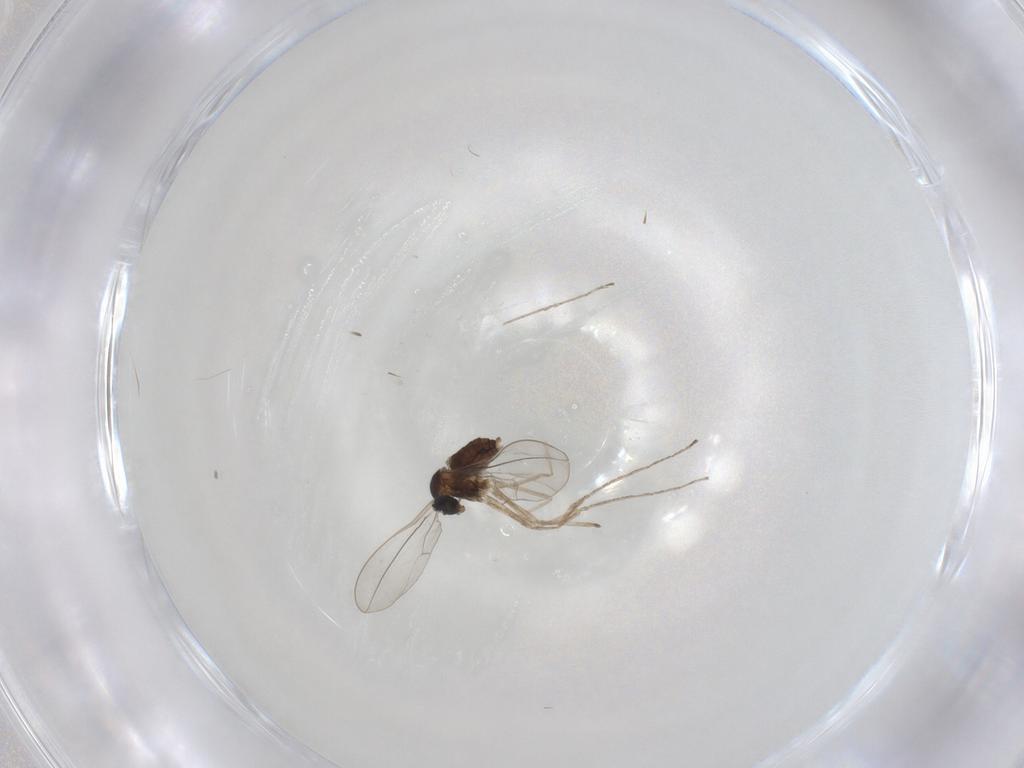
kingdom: Animalia
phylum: Arthropoda
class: Insecta
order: Diptera
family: Cecidomyiidae
